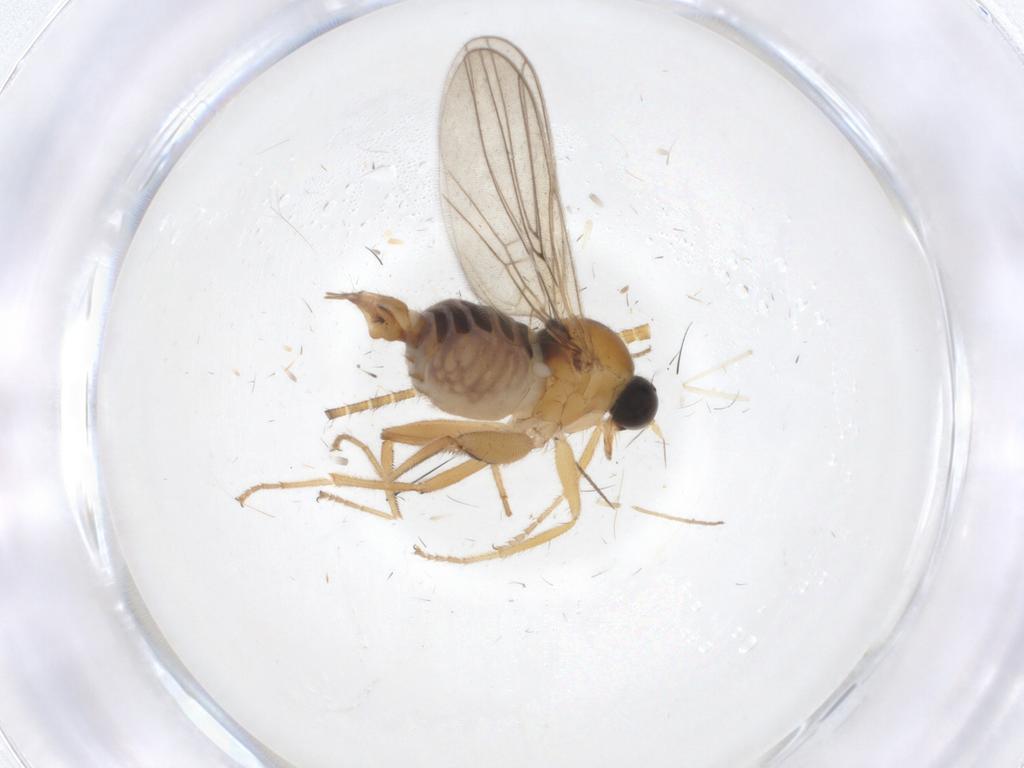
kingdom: Animalia
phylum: Arthropoda
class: Insecta
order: Diptera
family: Hybotidae
